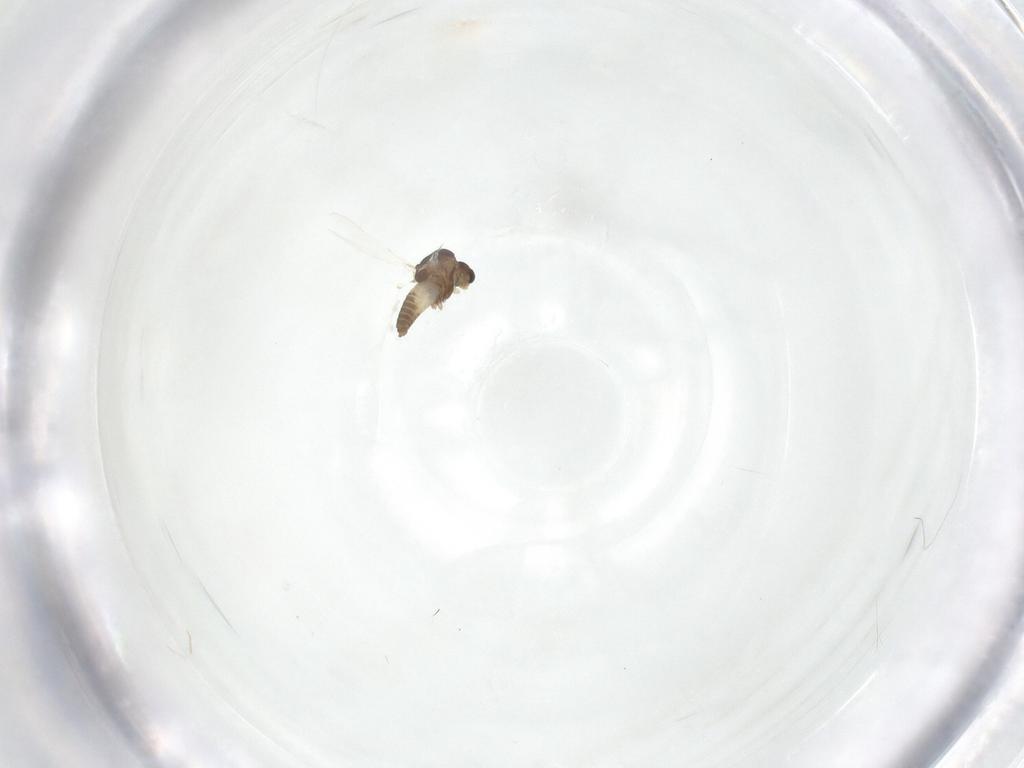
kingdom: Animalia
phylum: Arthropoda
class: Insecta
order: Diptera
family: Chironomidae
